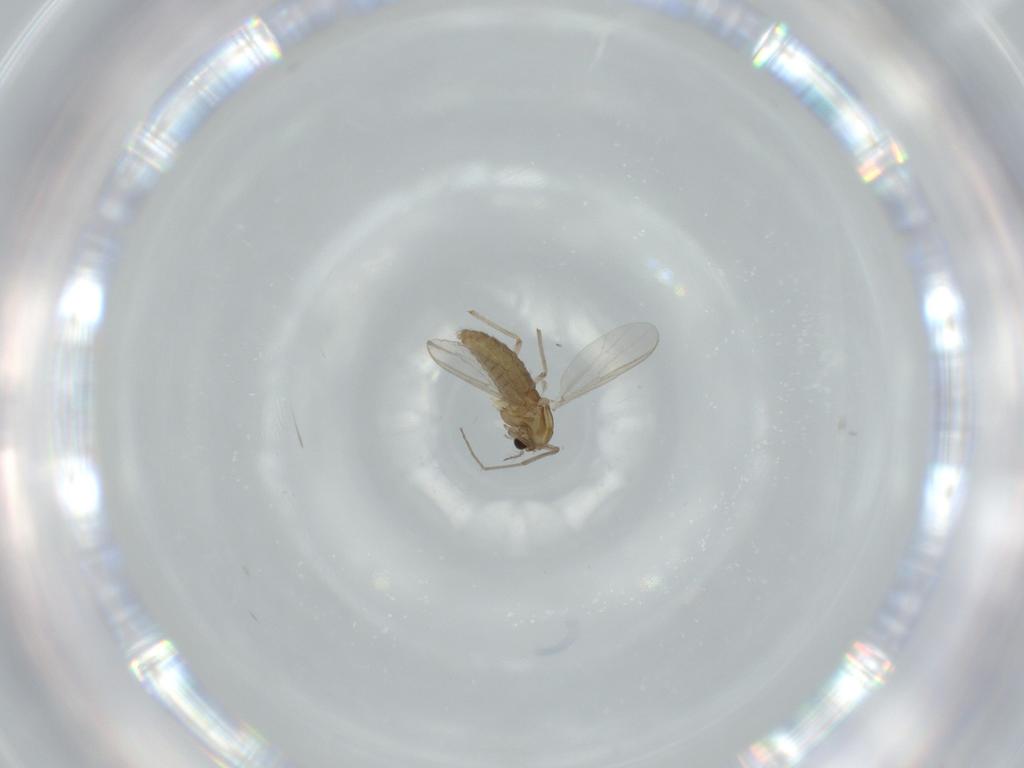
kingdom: Animalia
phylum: Arthropoda
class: Insecta
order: Diptera
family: Chironomidae
